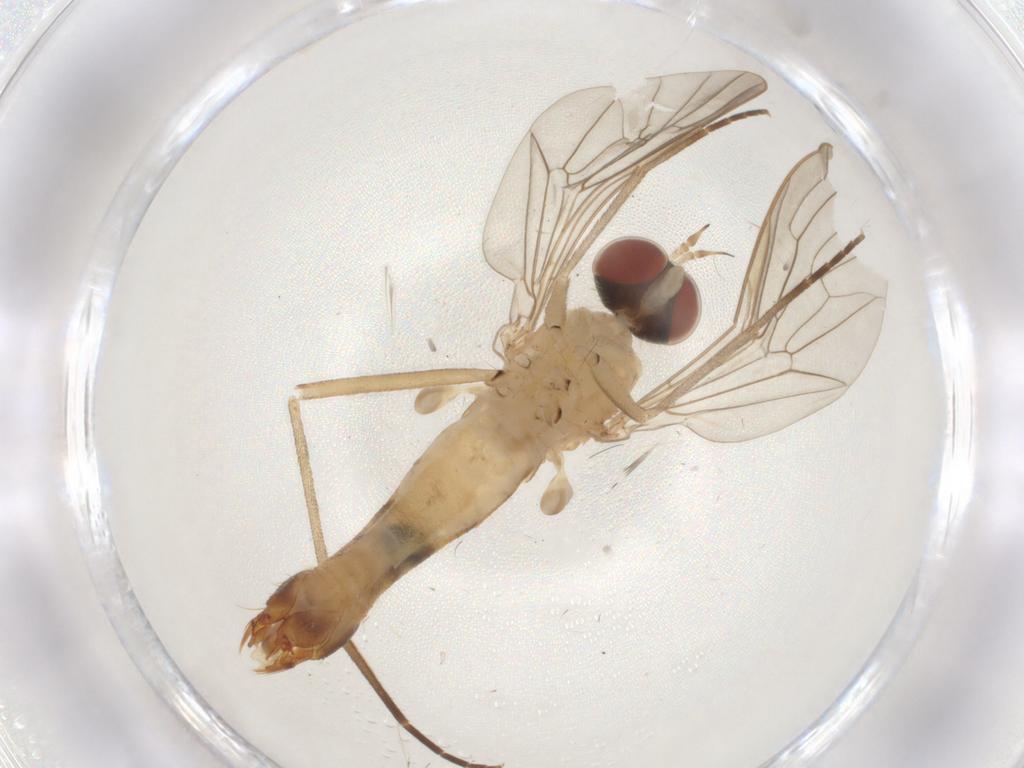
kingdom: Animalia
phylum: Arthropoda
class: Insecta
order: Diptera
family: Apsilocephalidae
